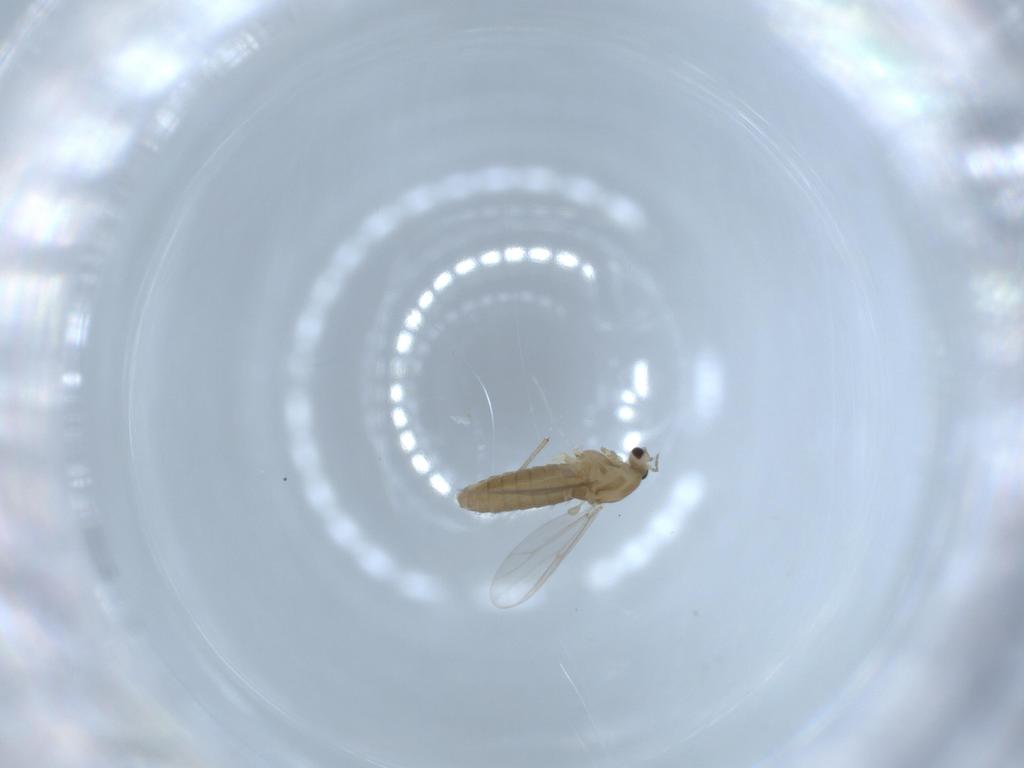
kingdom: Animalia
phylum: Arthropoda
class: Insecta
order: Diptera
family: Chironomidae
